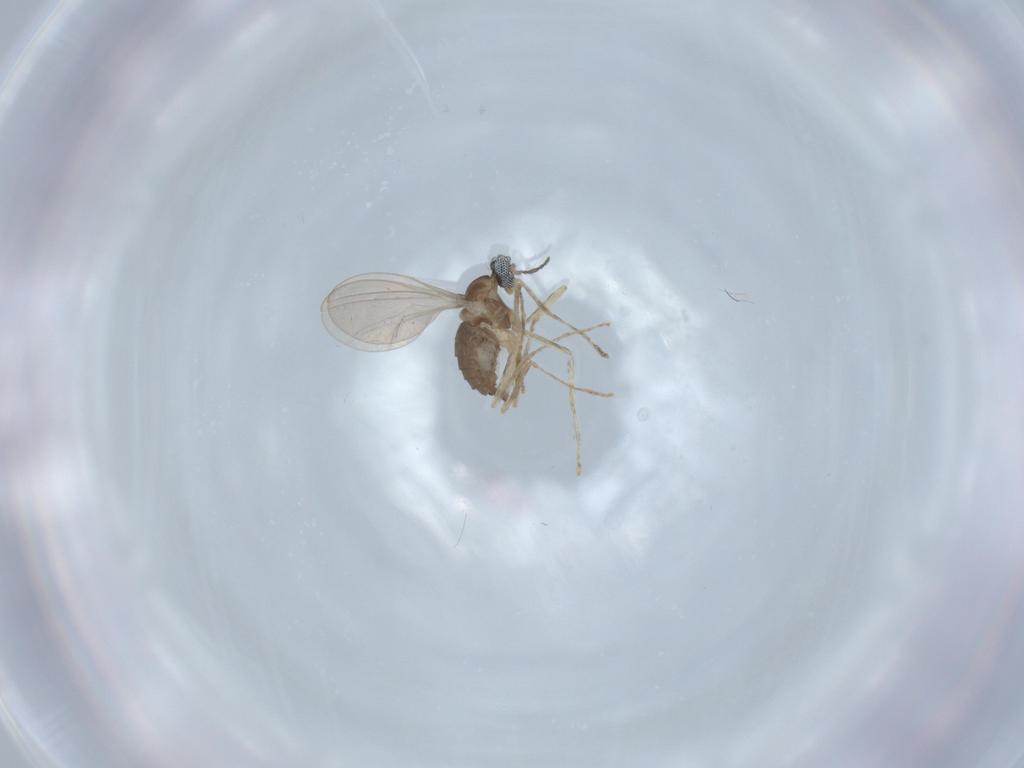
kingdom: Animalia
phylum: Arthropoda
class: Insecta
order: Diptera
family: Cecidomyiidae
